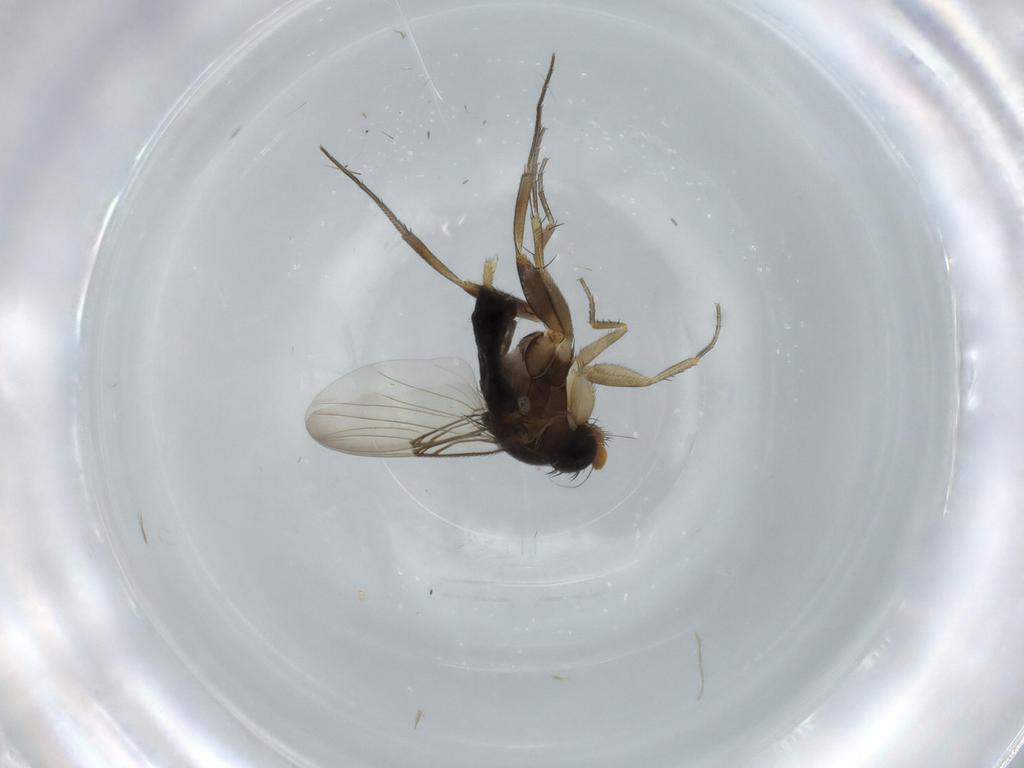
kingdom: Animalia
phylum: Arthropoda
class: Insecta
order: Diptera
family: Phoridae
